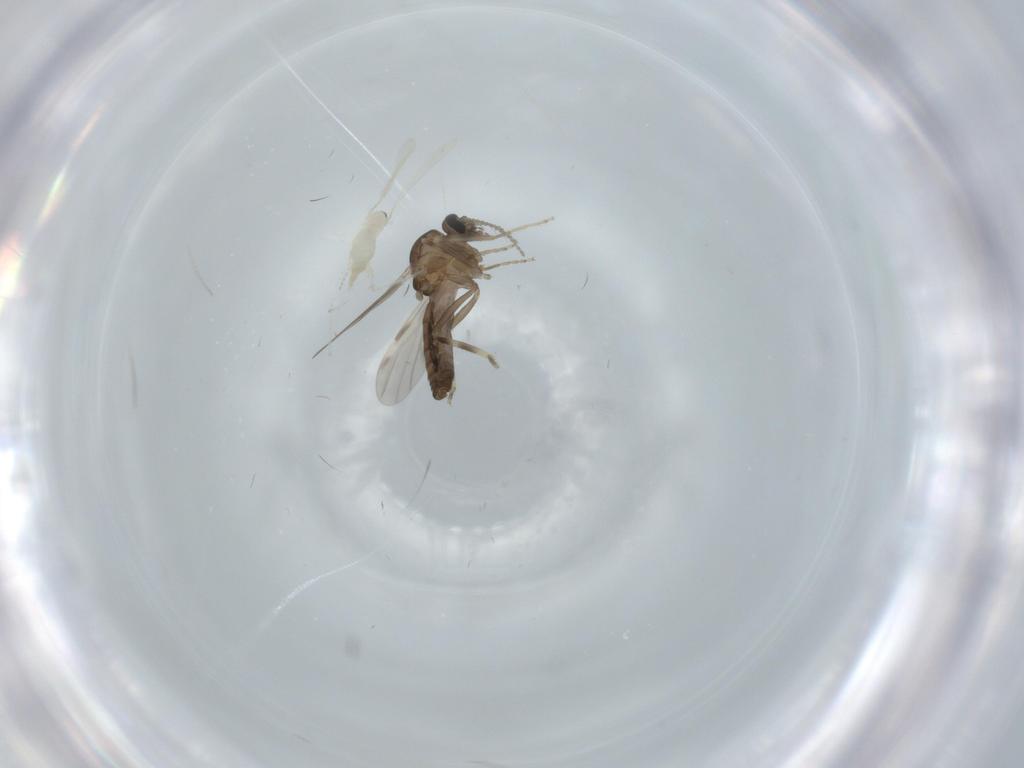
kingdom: Animalia
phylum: Arthropoda
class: Insecta
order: Diptera
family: Ceratopogonidae
